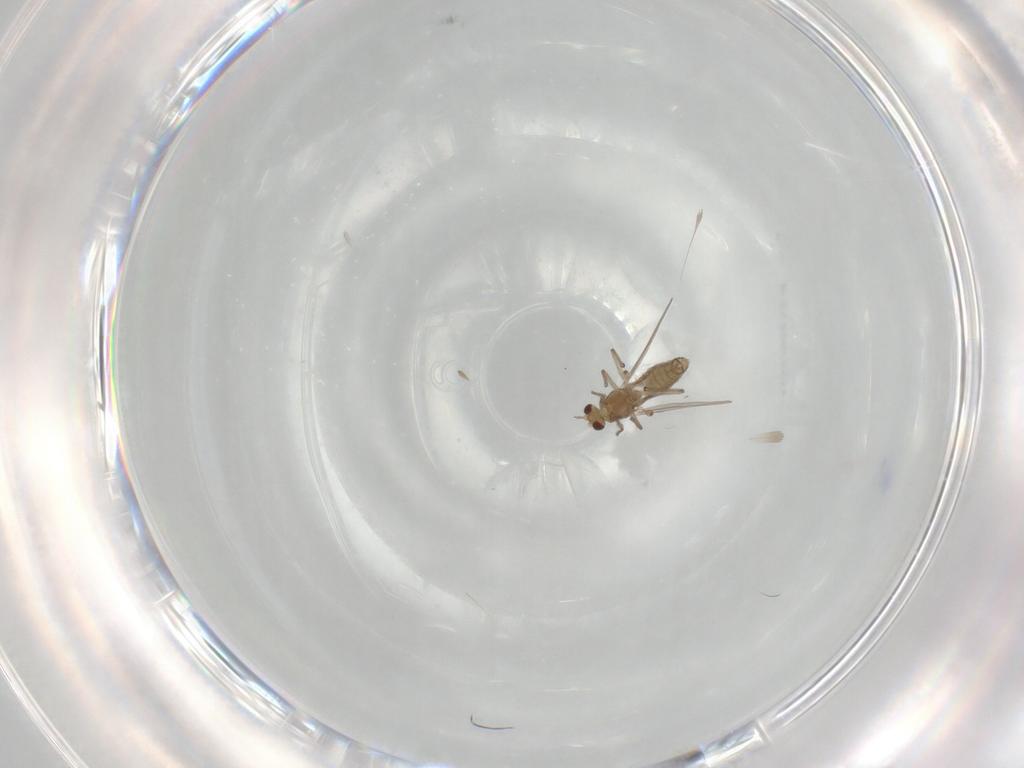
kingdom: Animalia
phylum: Arthropoda
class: Insecta
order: Diptera
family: Chironomidae
